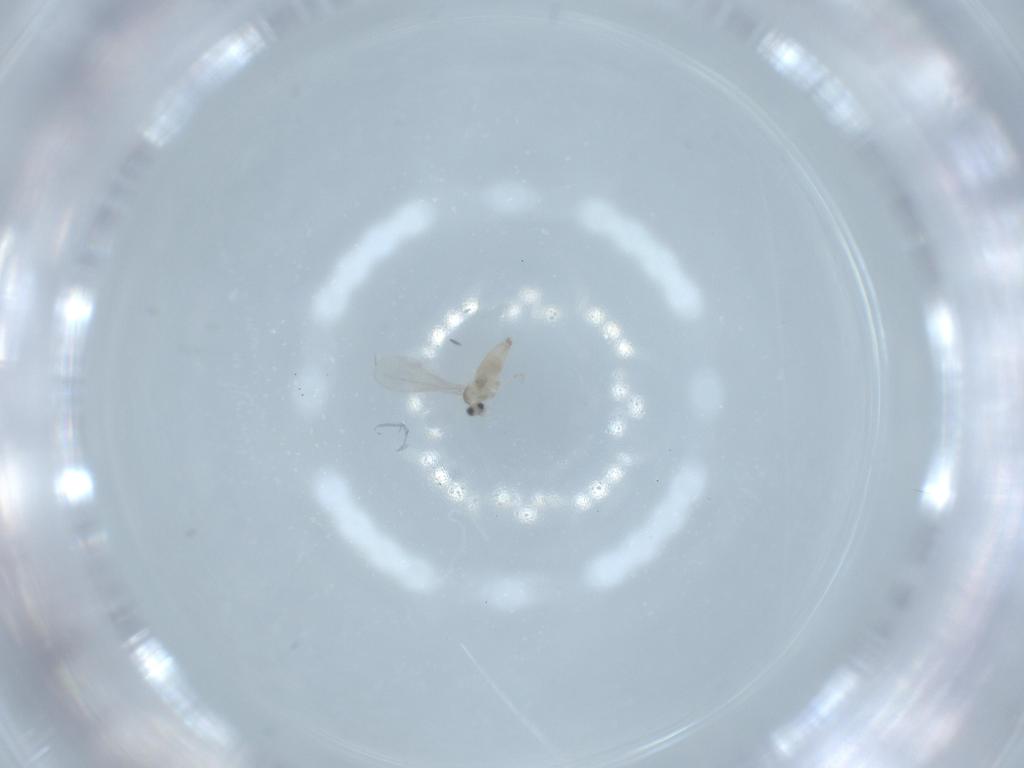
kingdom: Animalia
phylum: Arthropoda
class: Insecta
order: Diptera
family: Cecidomyiidae
